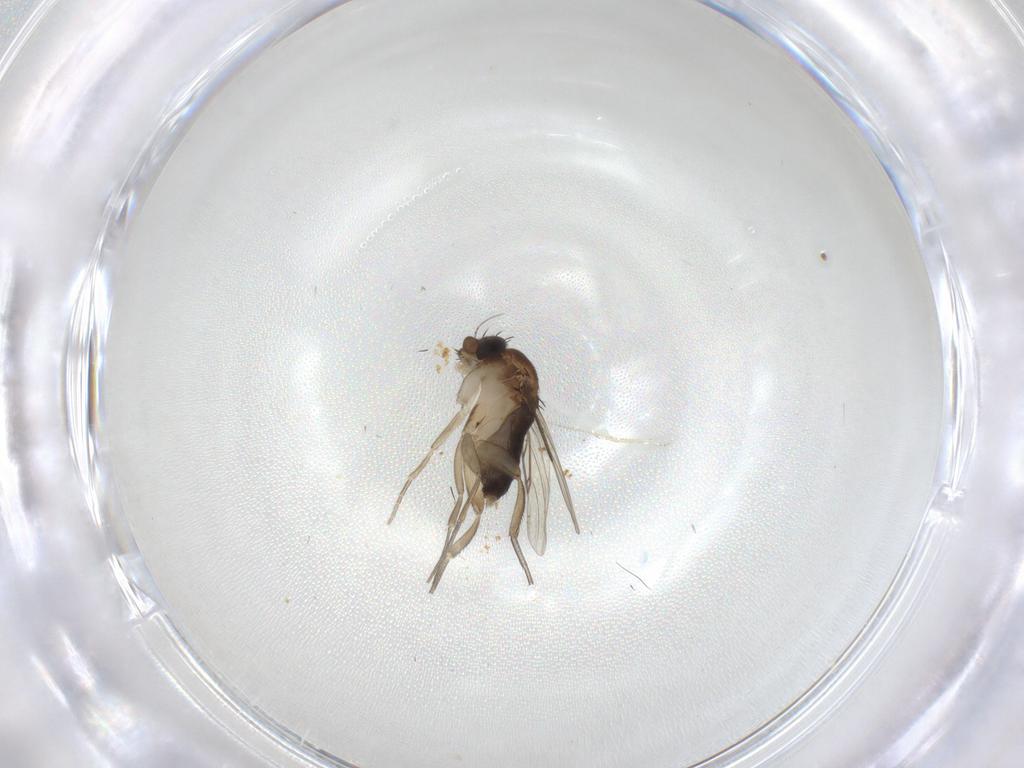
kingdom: Animalia
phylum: Arthropoda
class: Insecta
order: Diptera
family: Phoridae
